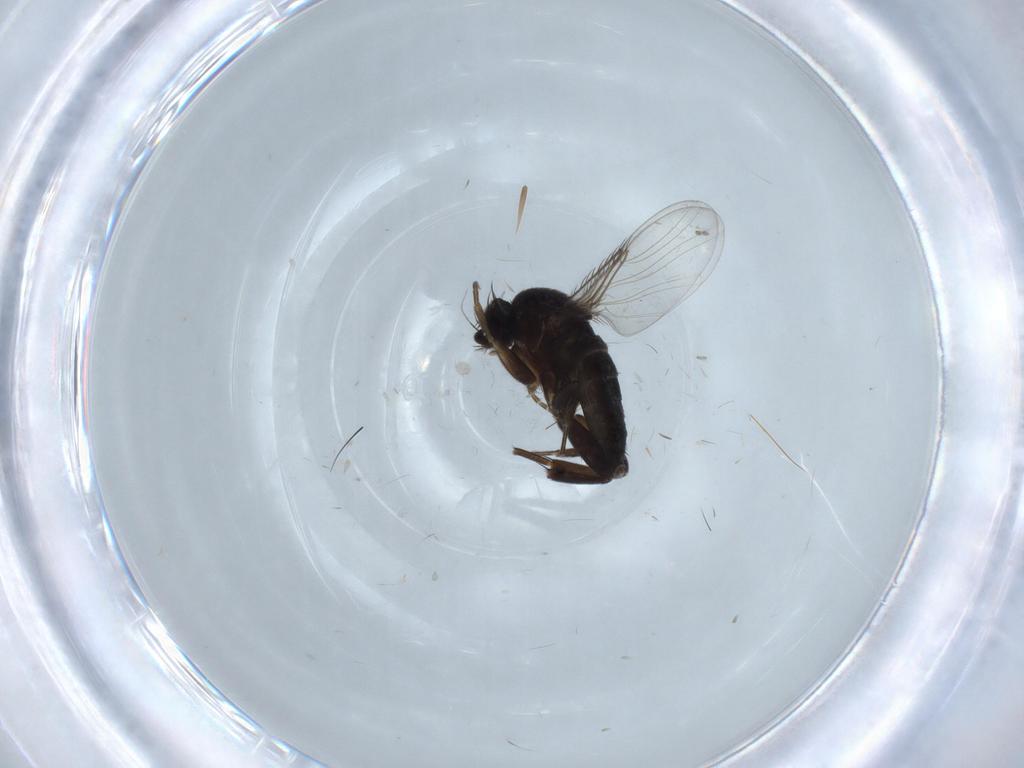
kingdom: Animalia
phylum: Arthropoda
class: Insecta
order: Diptera
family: Phoridae
